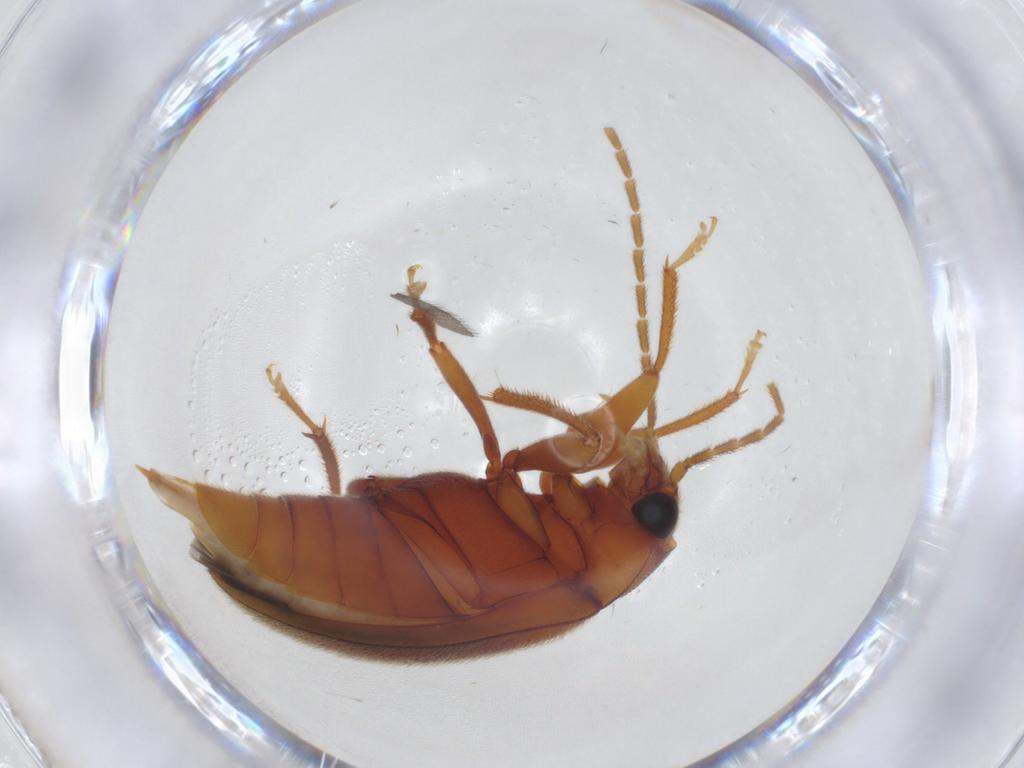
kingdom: Animalia
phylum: Arthropoda
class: Insecta
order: Coleoptera
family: Ptilodactylidae
